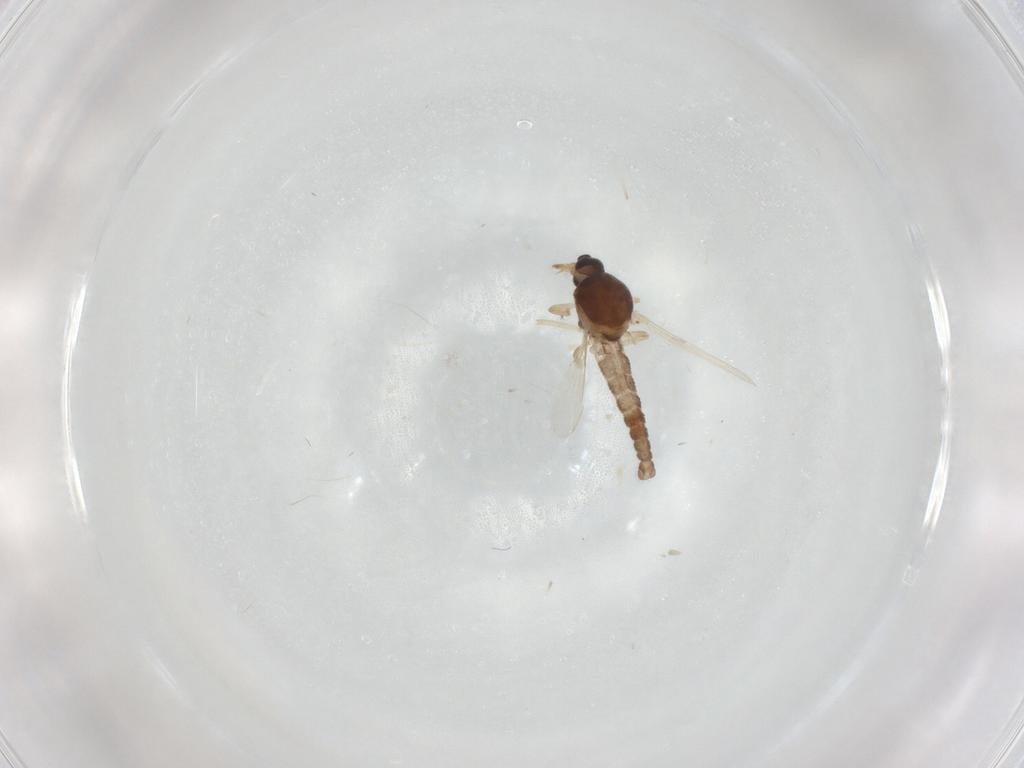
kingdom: Animalia
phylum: Arthropoda
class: Insecta
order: Diptera
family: Ceratopogonidae
